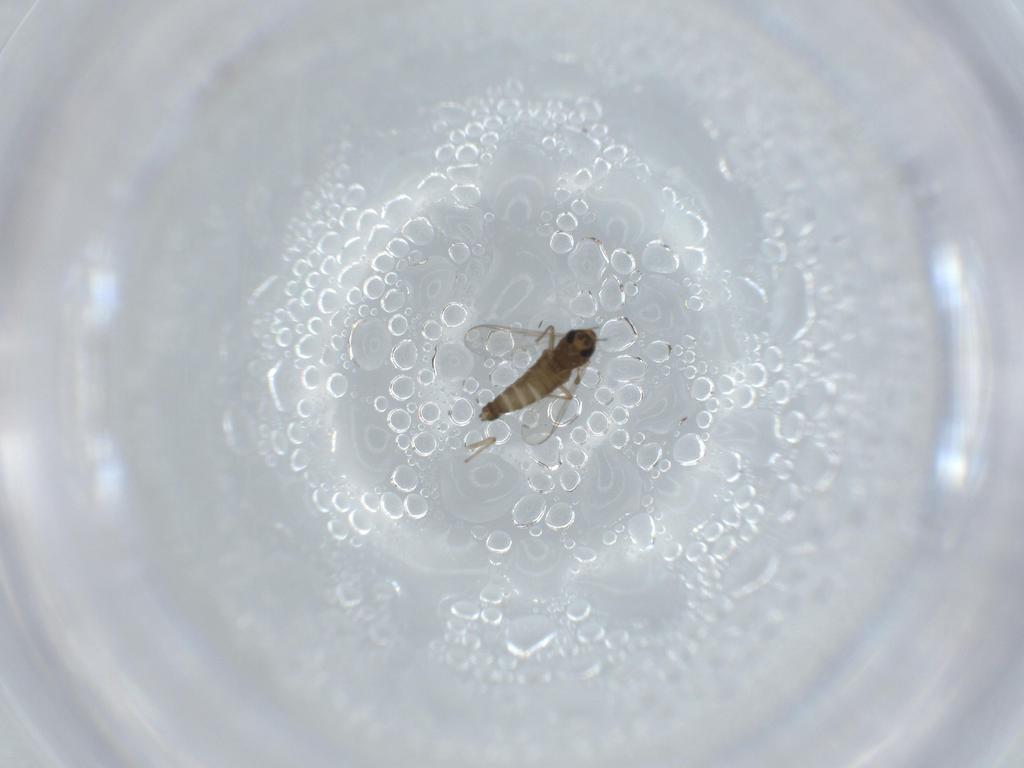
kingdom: Animalia
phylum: Arthropoda
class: Insecta
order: Diptera
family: Chironomidae
